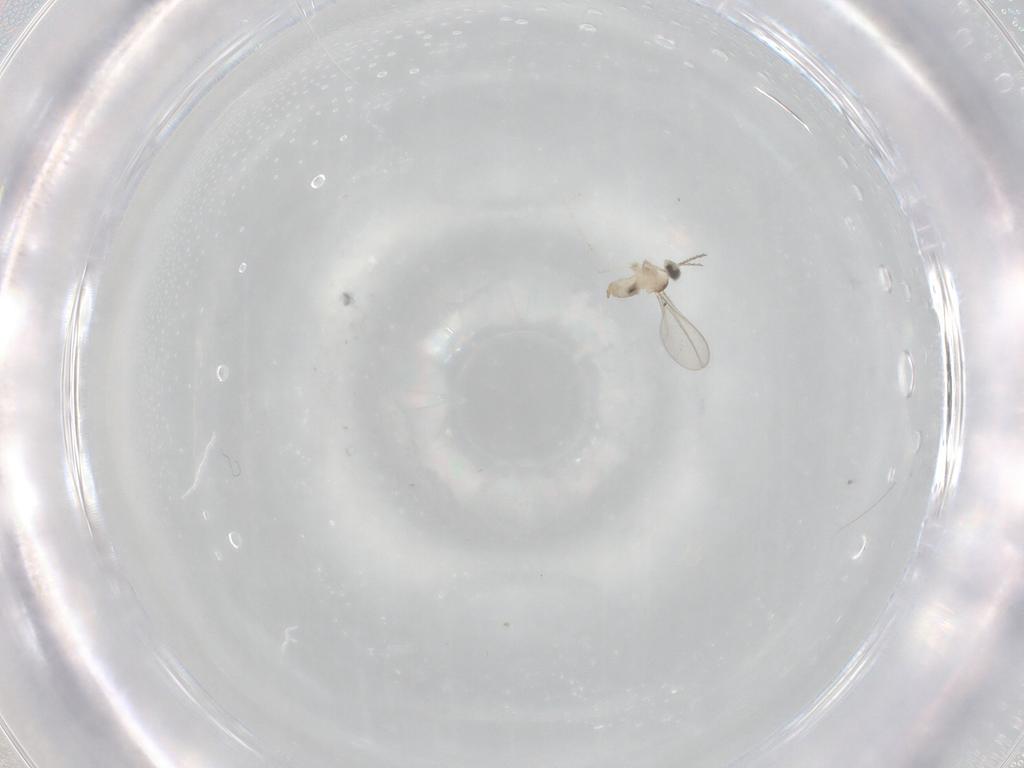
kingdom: Animalia
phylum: Arthropoda
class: Insecta
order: Diptera
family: Cecidomyiidae
